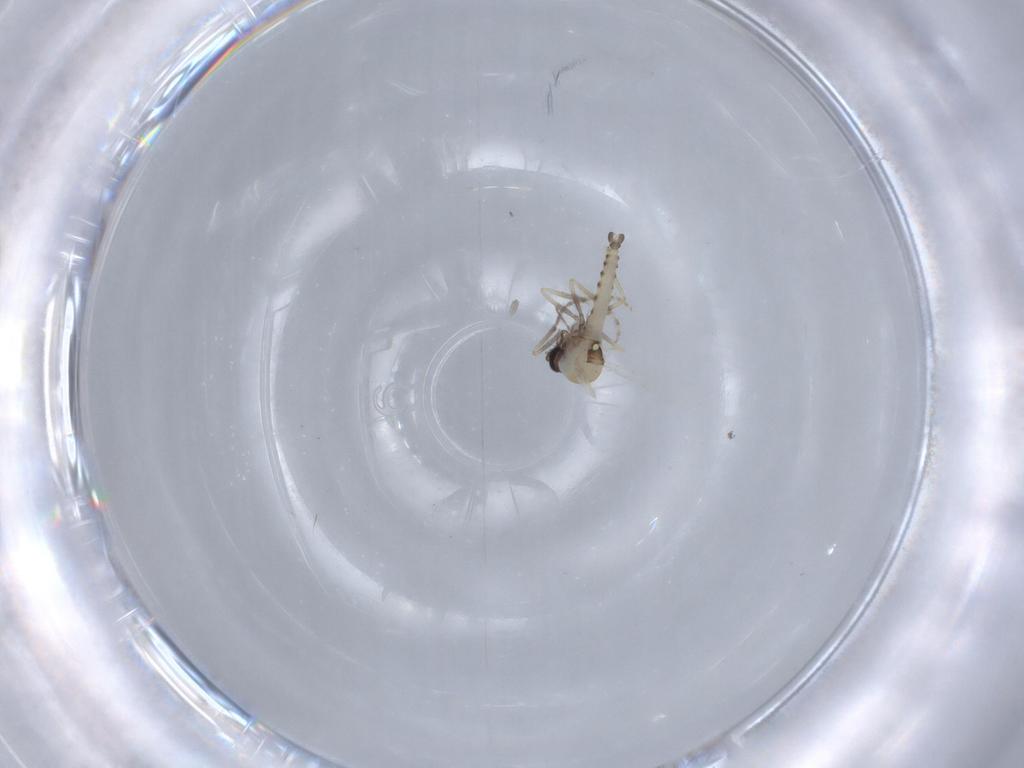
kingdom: Animalia
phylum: Arthropoda
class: Insecta
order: Diptera
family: Ceratopogonidae
